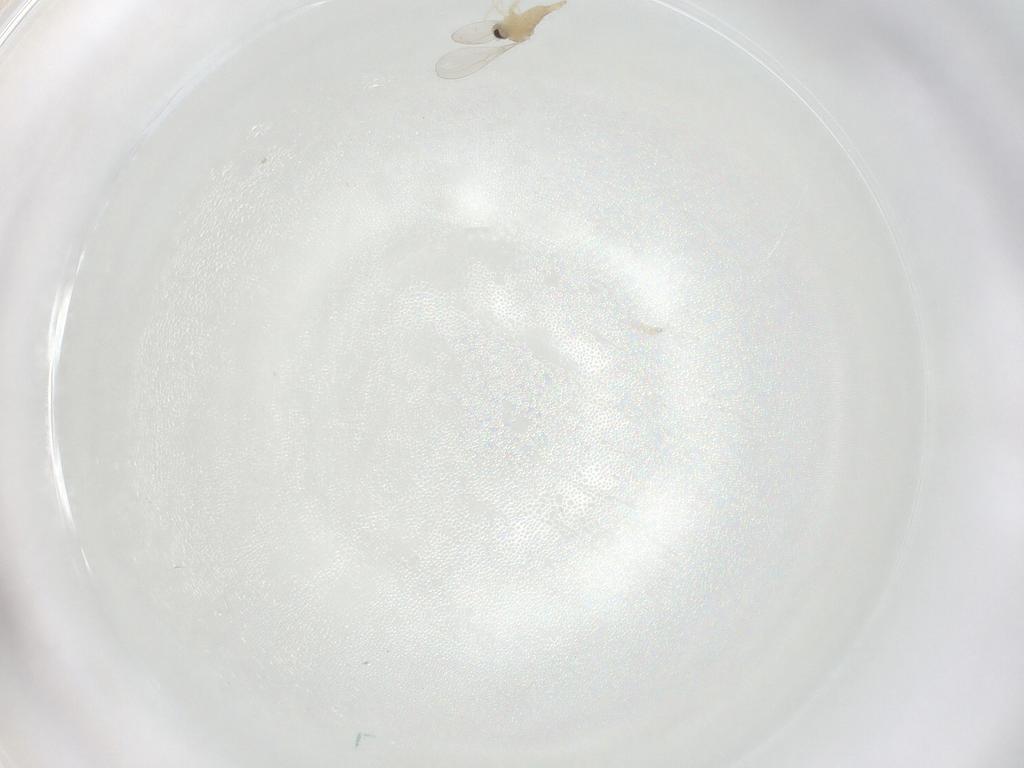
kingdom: Animalia
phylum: Arthropoda
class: Insecta
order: Diptera
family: Cecidomyiidae
